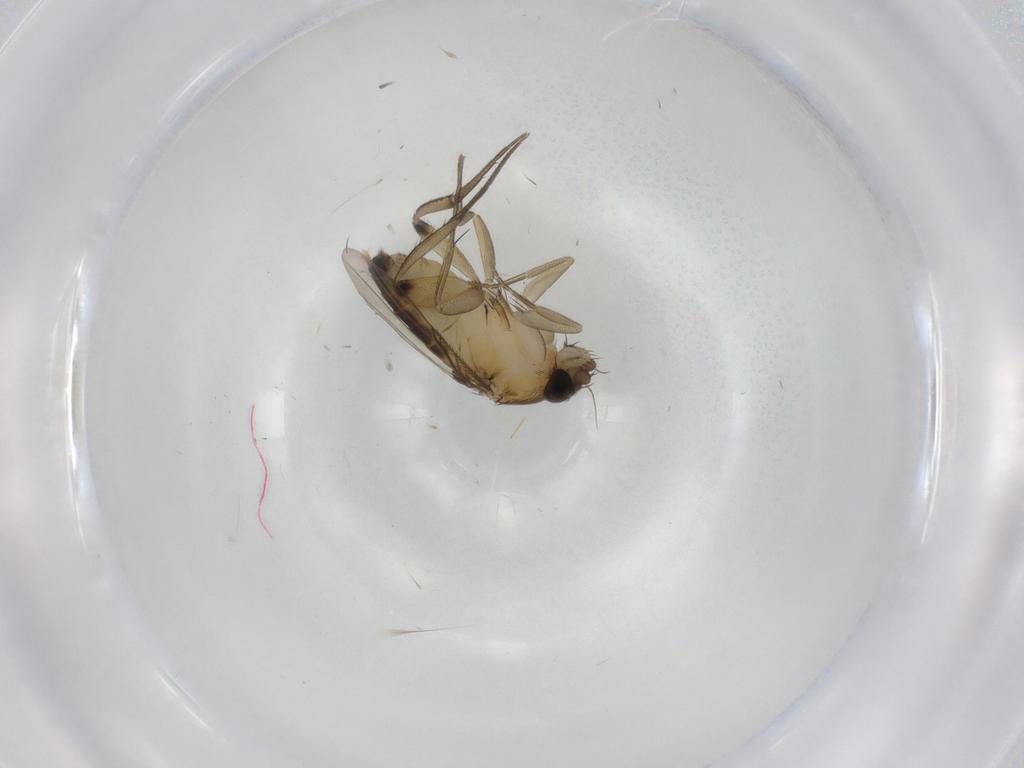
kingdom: Animalia
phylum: Arthropoda
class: Insecta
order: Diptera
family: Phoridae
